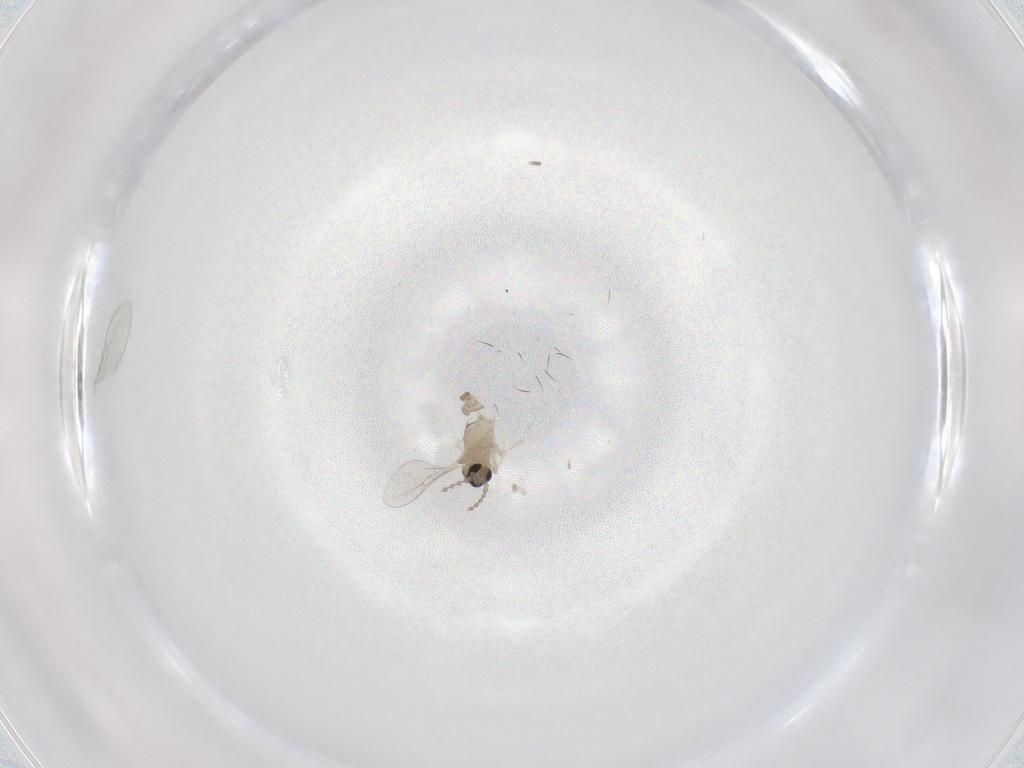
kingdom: Animalia
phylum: Arthropoda
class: Insecta
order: Diptera
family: Cecidomyiidae
